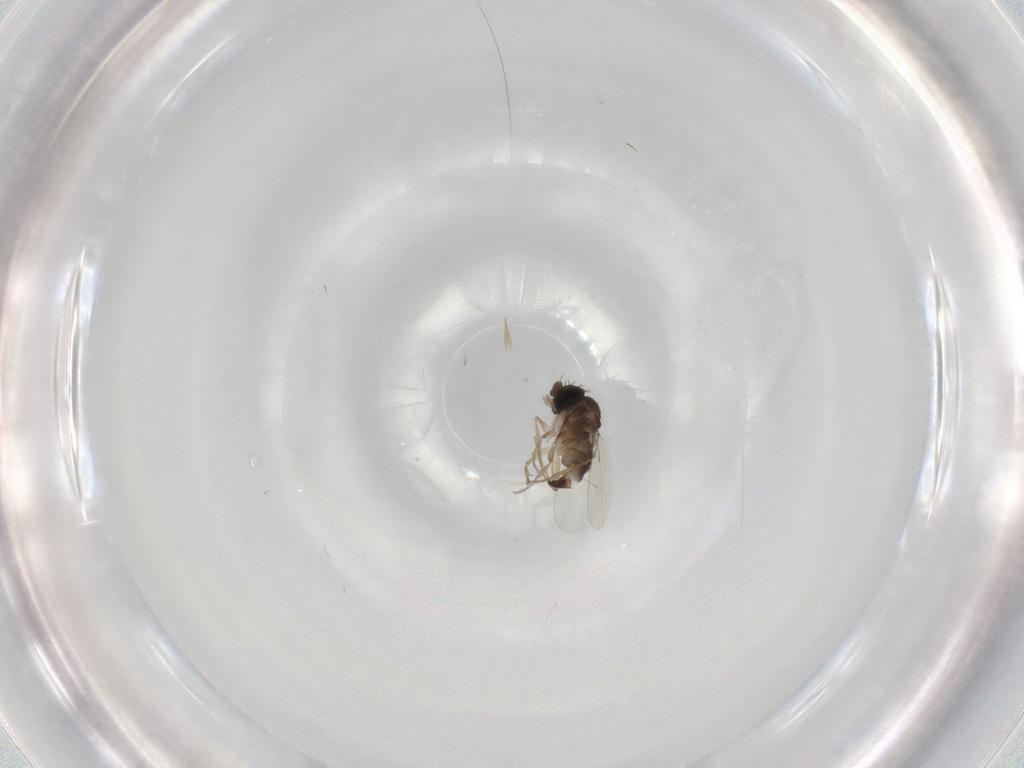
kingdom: Animalia
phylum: Arthropoda
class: Insecta
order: Diptera
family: Phoridae
